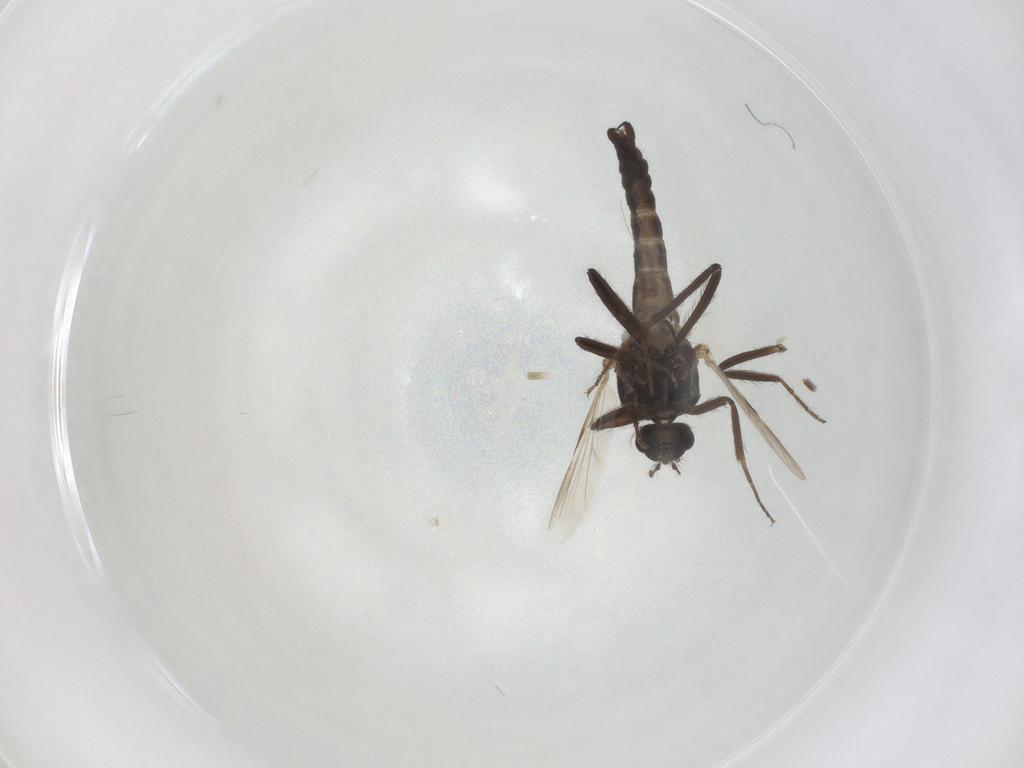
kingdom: Animalia
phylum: Arthropoda
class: Insecta
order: Diptera
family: Ceratopogonidae
